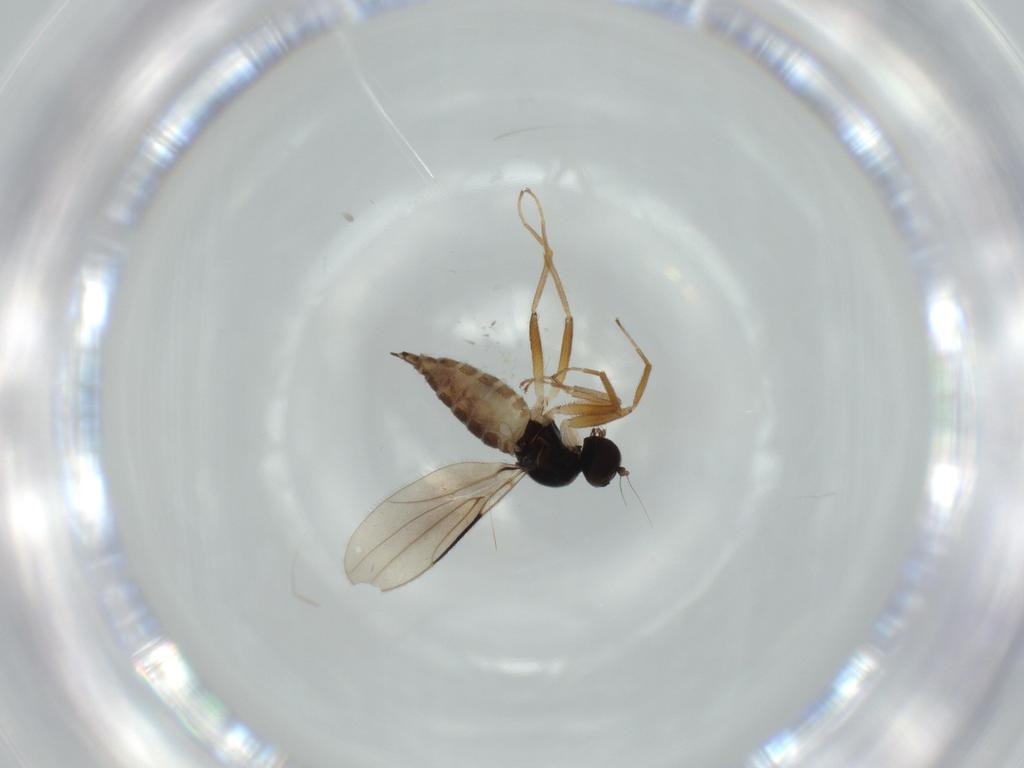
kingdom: Animalia
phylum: Arthropoda
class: Insecta
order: Diptera
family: Hybotidae
